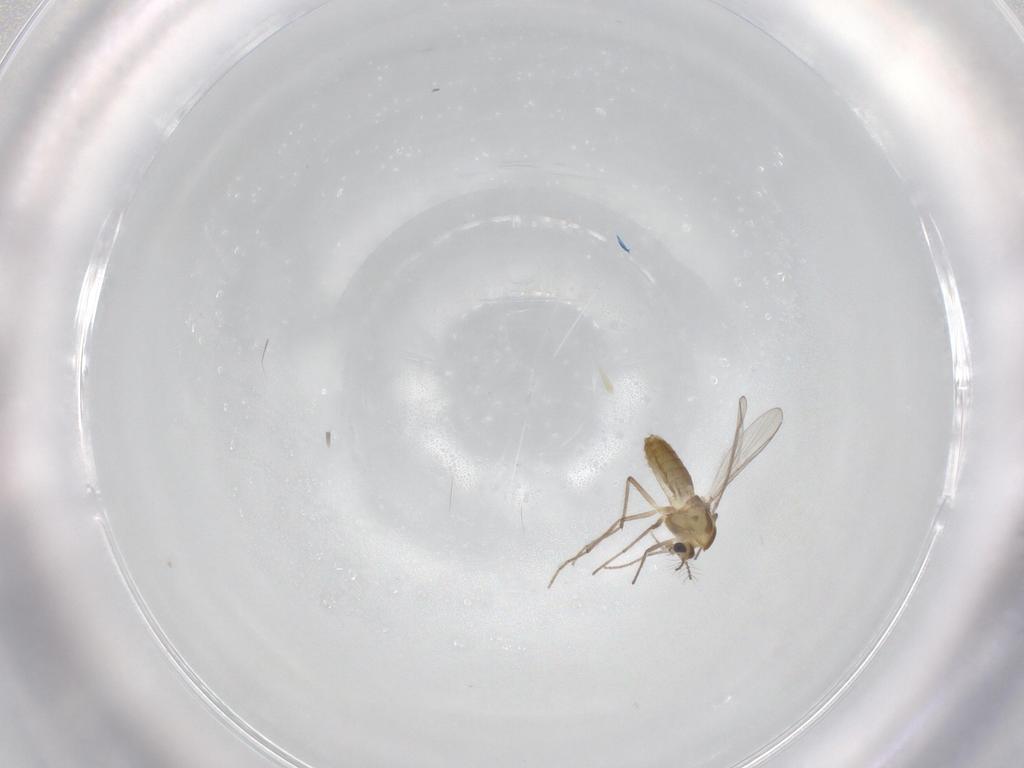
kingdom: Animalia
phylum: Arthropoda
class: Insecta
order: Diptera
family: Chironomidae
